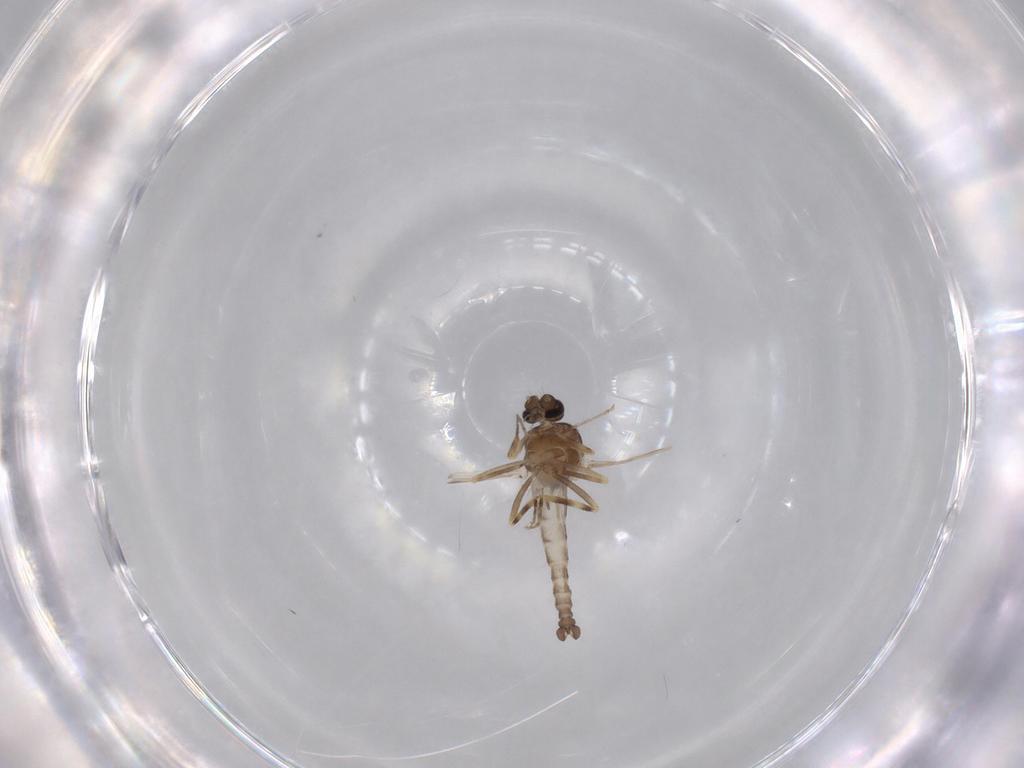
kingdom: Animalia
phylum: Arthropoda
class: Insecta
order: Diptera
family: Ceratopogonidae
